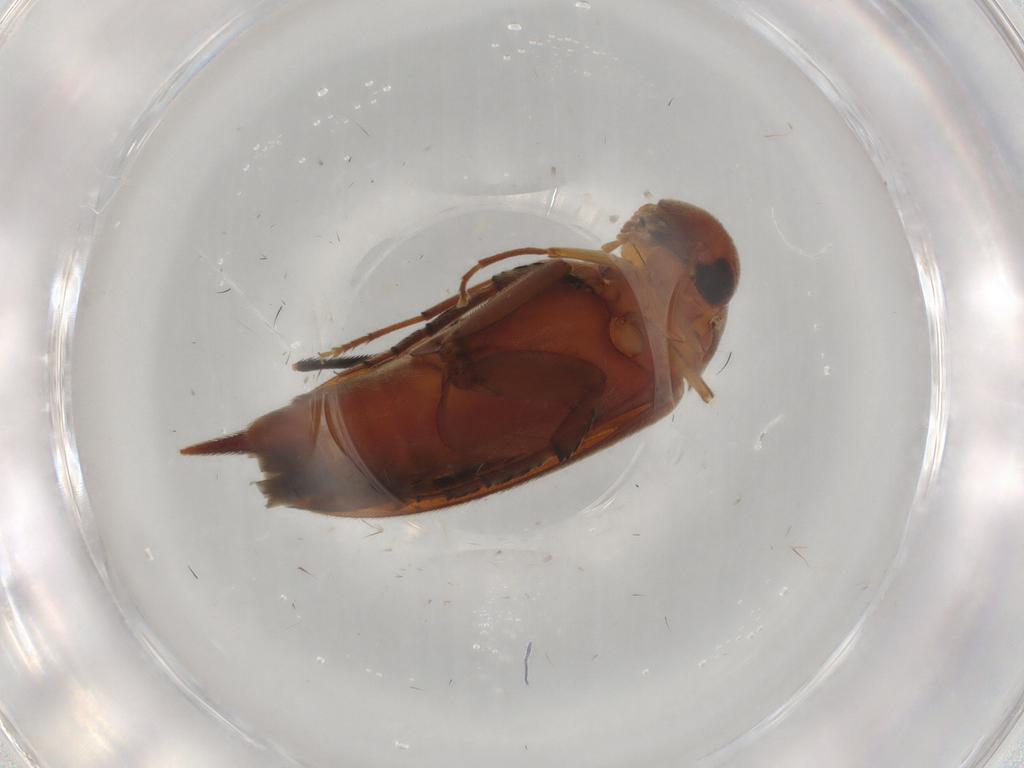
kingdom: Animalia
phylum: Arthropoda
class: Insecta
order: Coleoptera
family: Mordellidae
